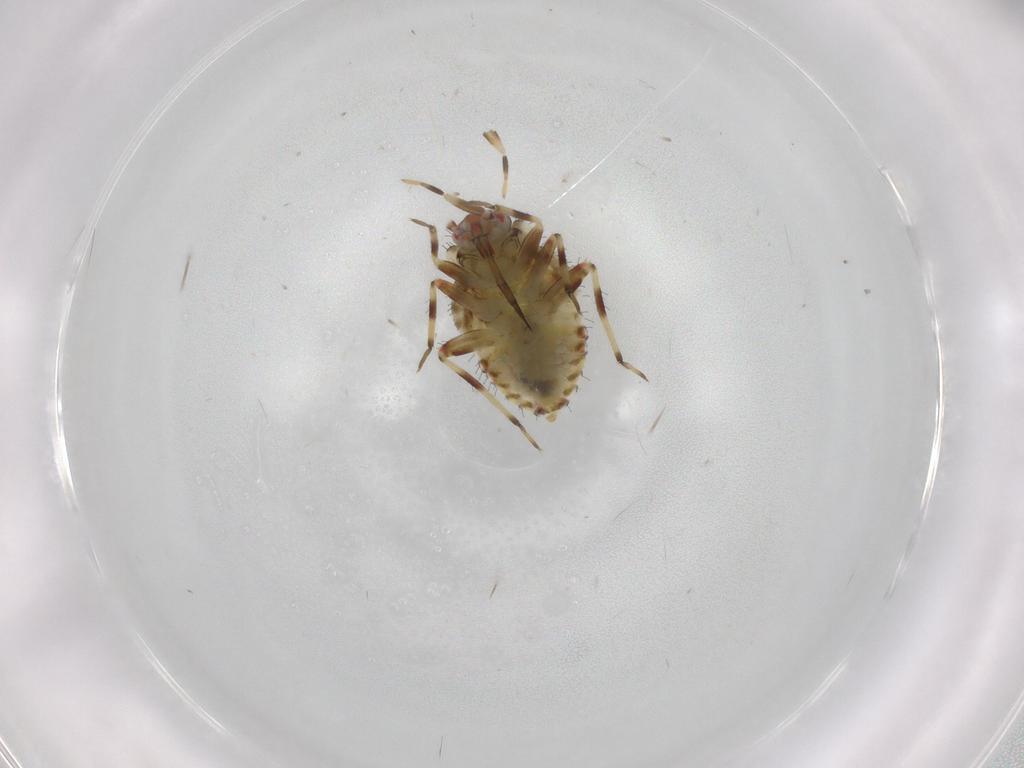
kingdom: Animalia
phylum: Arthropoda
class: Insecta
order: Hemiptera
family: Miridae
